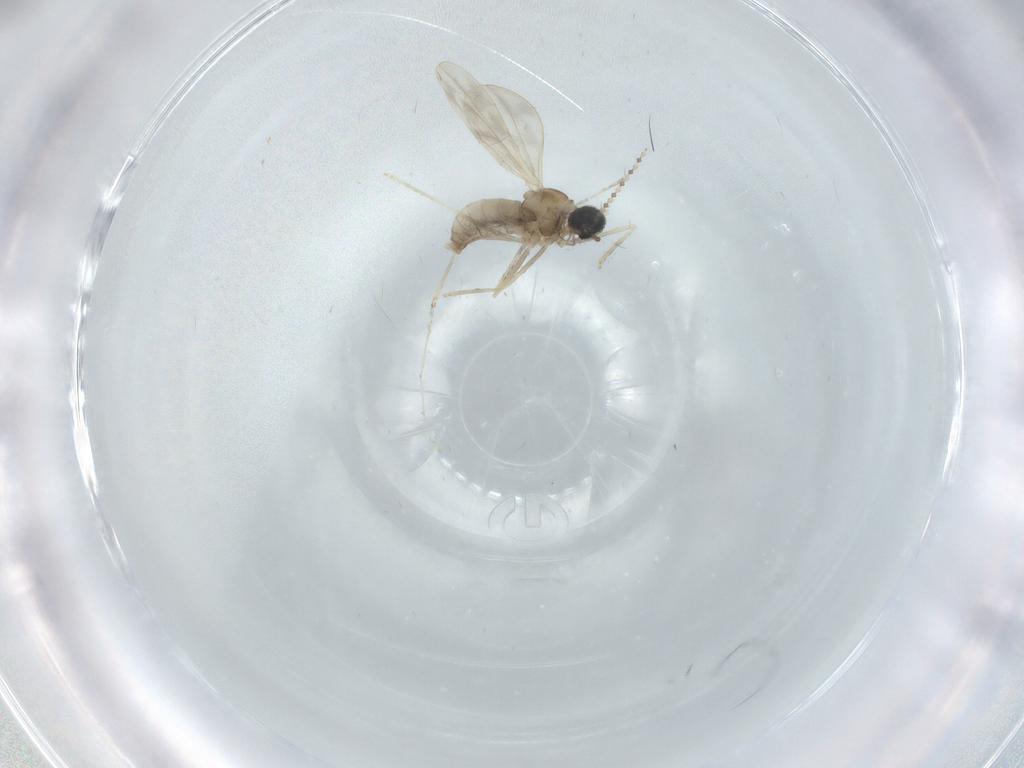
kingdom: Animalia
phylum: Arthropoda
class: Insecta
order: Diptera
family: Cecidomyiidae
